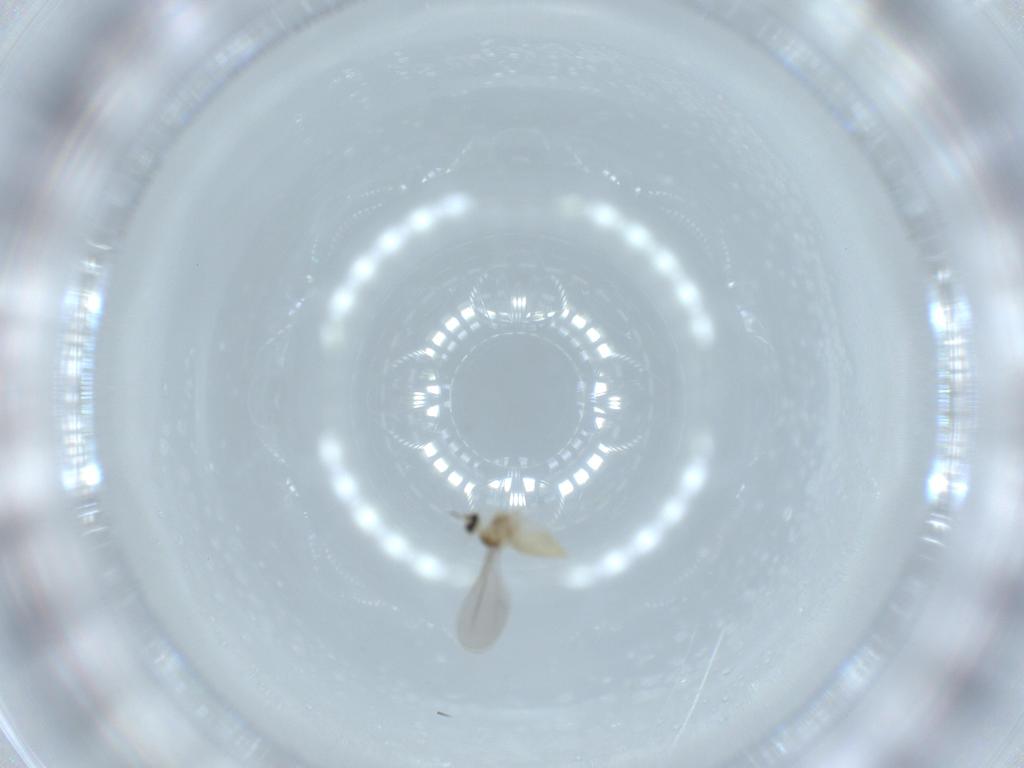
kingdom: Animalia
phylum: Arthropoda
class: Insecta
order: Diptera
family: Cecidomyiidae
